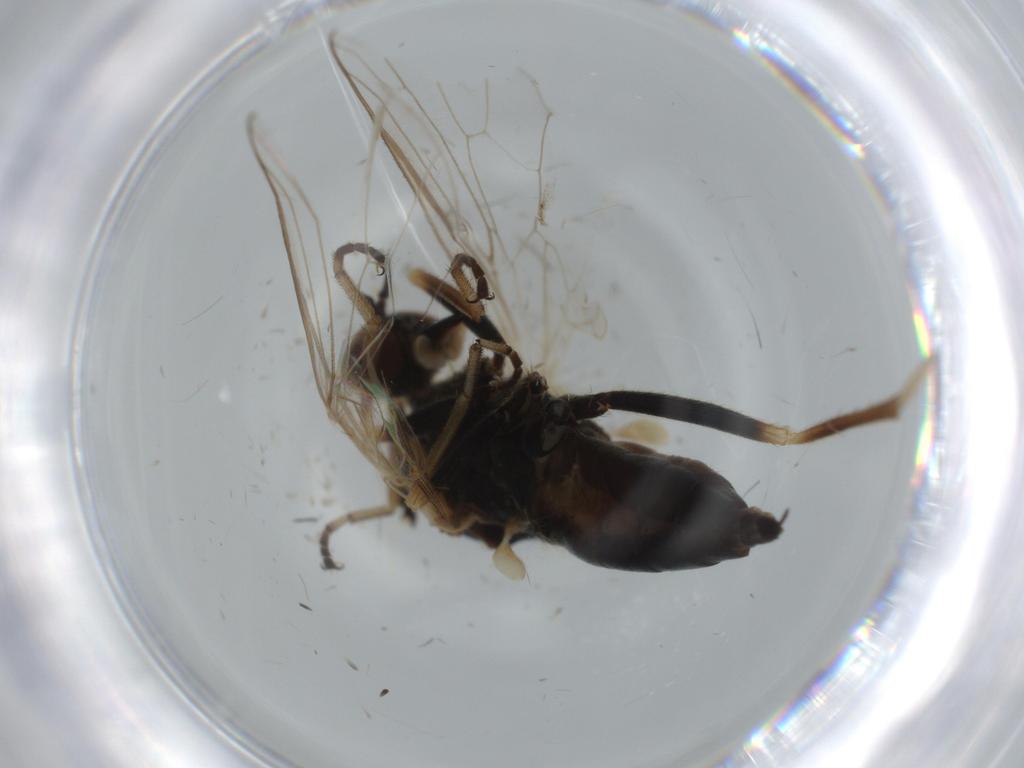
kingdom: Animalia
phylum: Arthropoda
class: Insecta
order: Diptera
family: Empididae
